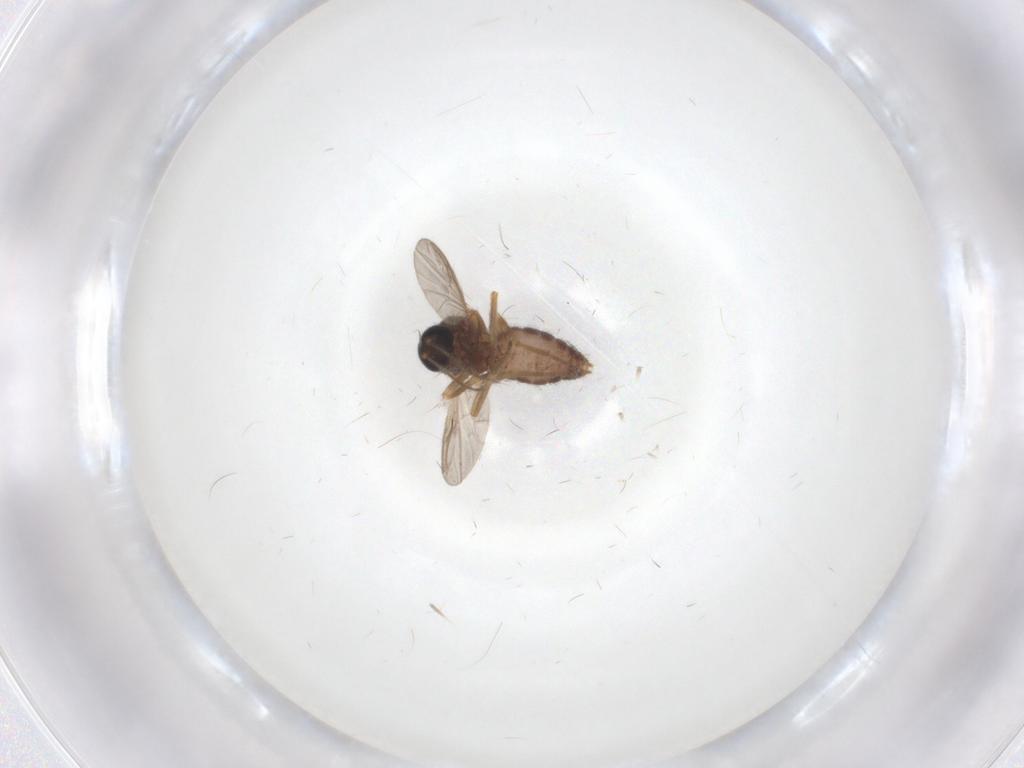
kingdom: Animalia
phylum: Arthropoda
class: Insecta
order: Diptera
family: Ceratopogonidae
